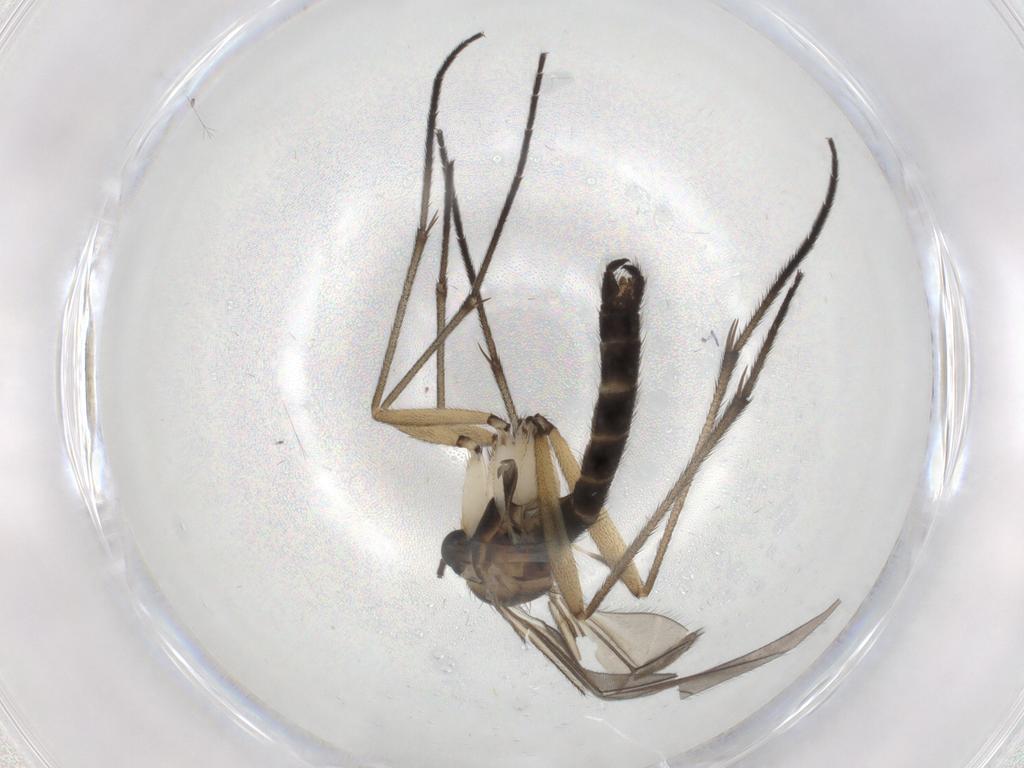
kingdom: Animalia
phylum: Arthropoda
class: Insecta
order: Diptera
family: Sciaridae
